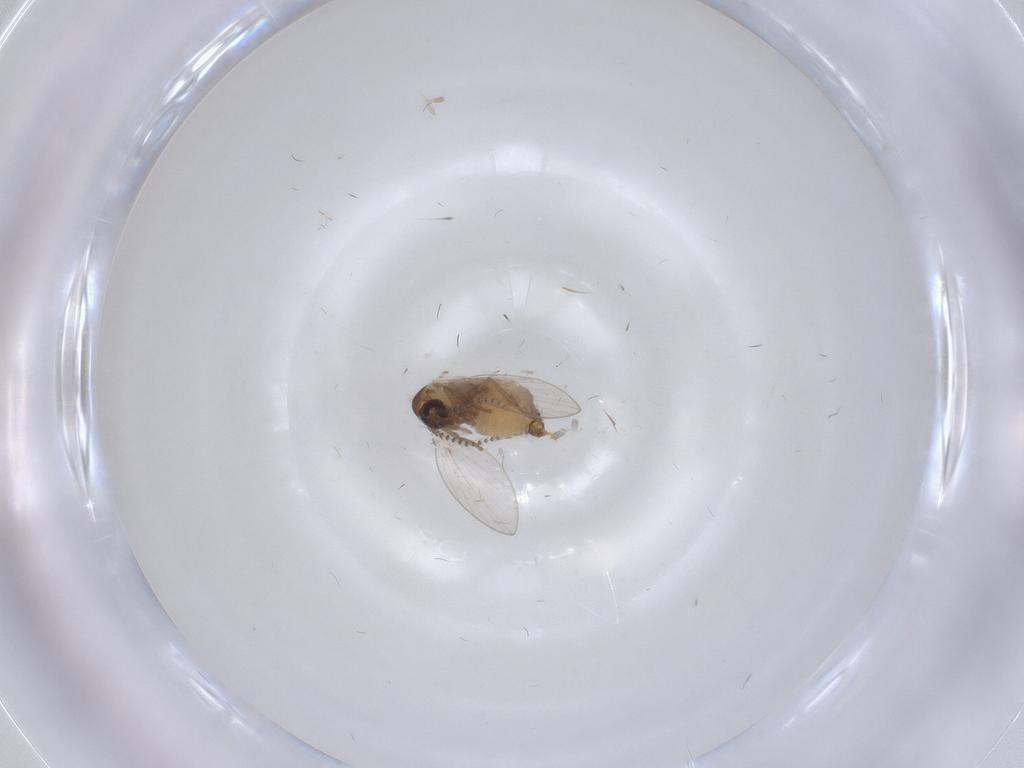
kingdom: Animalia
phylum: Arthropoda
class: Insecta
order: Diptera
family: Psychodidae
